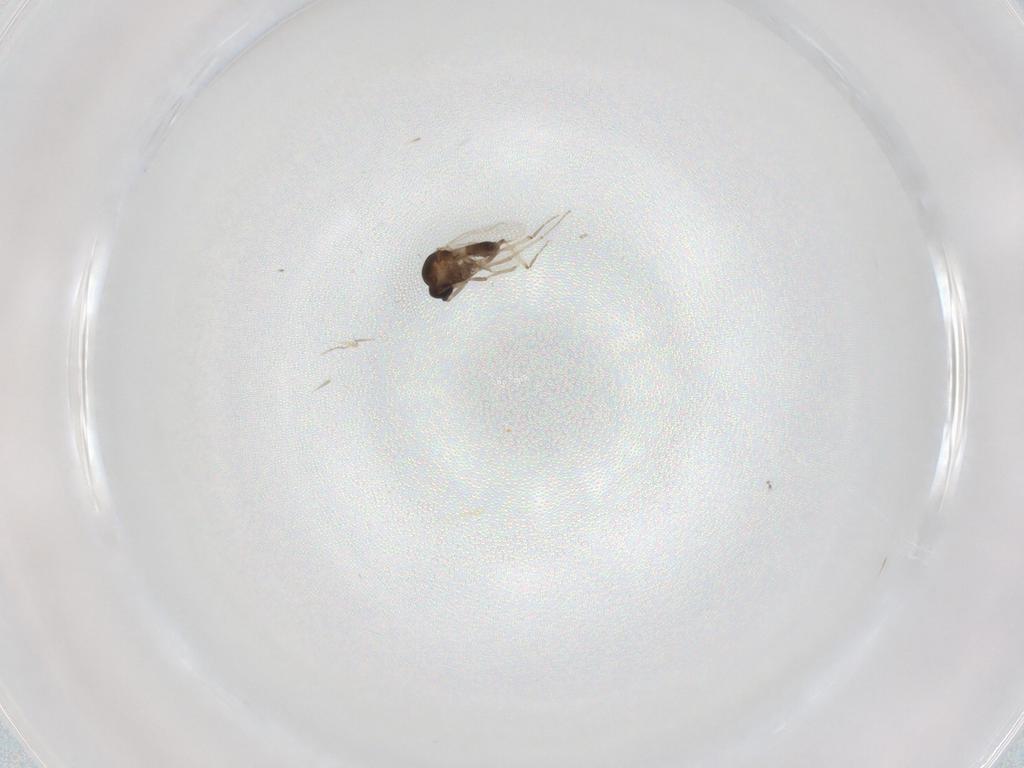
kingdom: Animalia
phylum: Arthropoda
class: Insecta
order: Diptera
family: Ceratopogonidae
